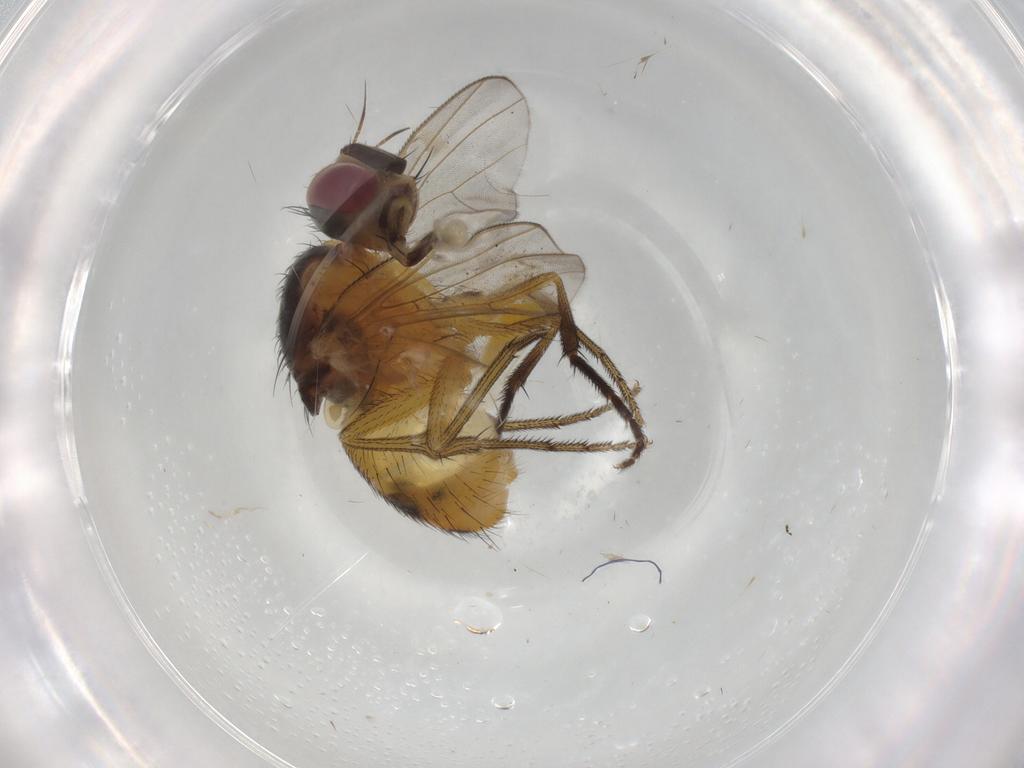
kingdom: Animalia
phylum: Arthropoda
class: Insecta
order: Diptera
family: Muscidae
